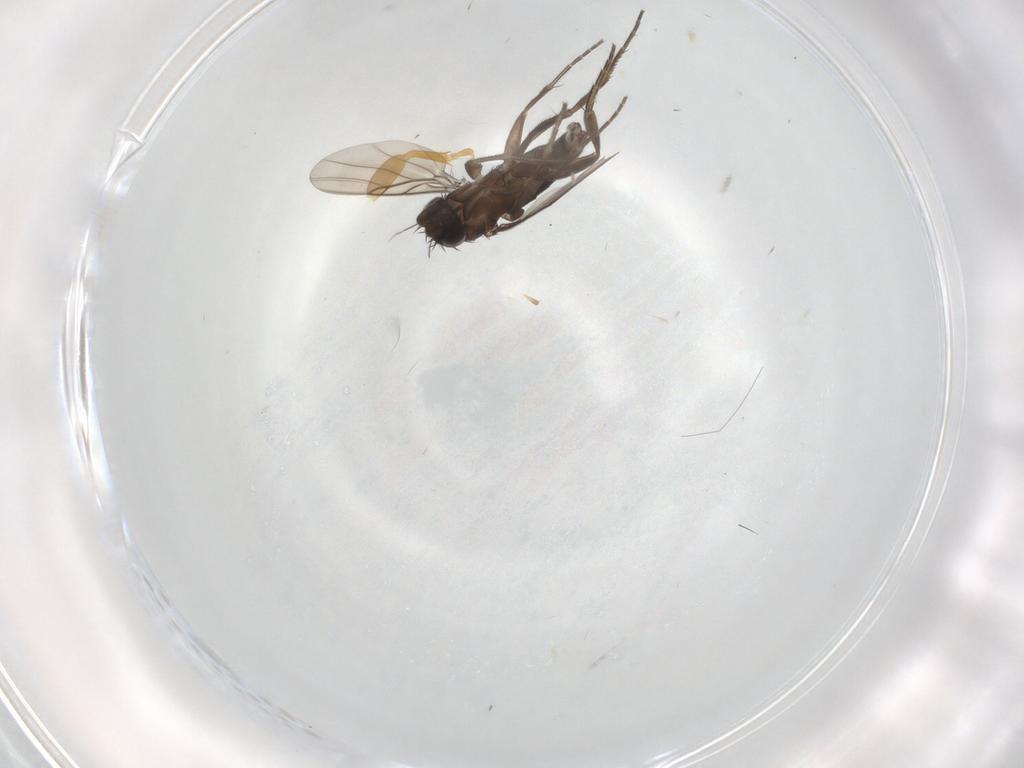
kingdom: Animalia
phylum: Arthropoda
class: Insecta
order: Diptera
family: Phoridae
